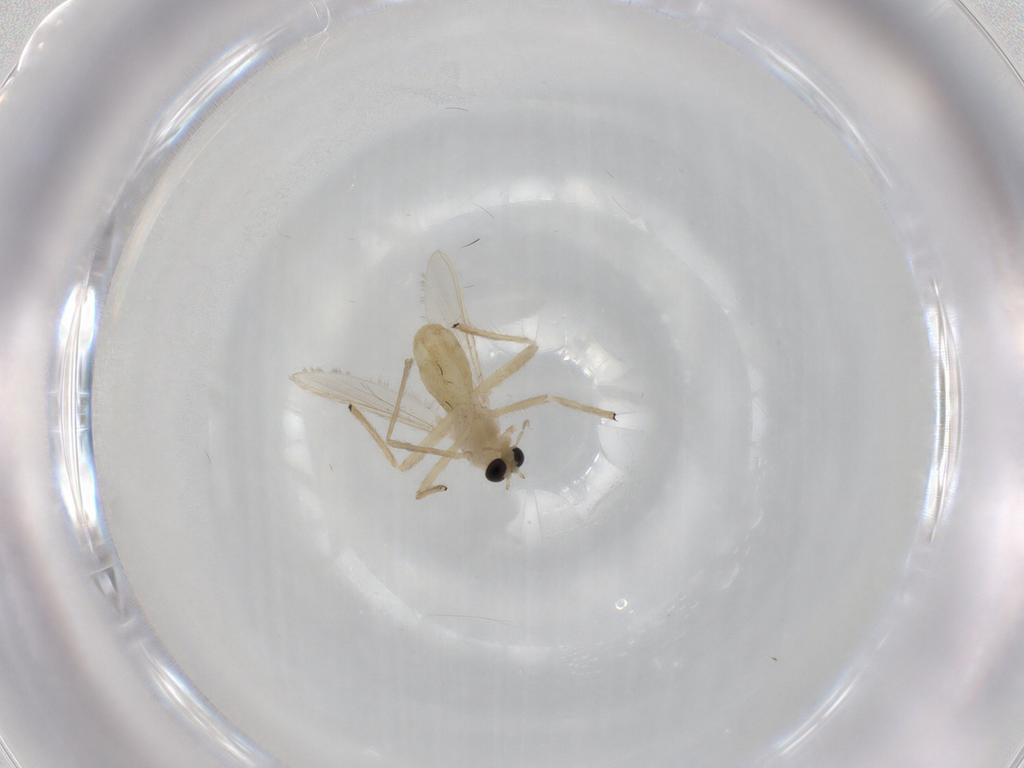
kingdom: Animalia
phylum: Arthropoda
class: Insecta
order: Diptera
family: Chironomidae
